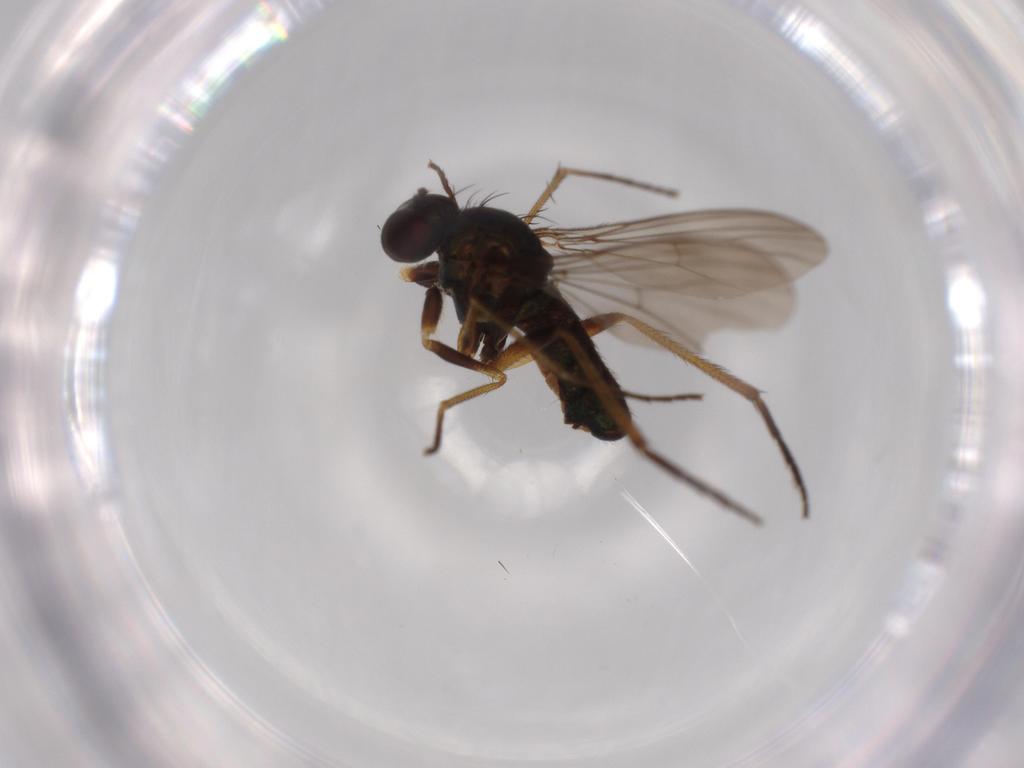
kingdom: Animalia
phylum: Arthropoda
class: Insecta
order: Diptera
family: Dolichopodidae
